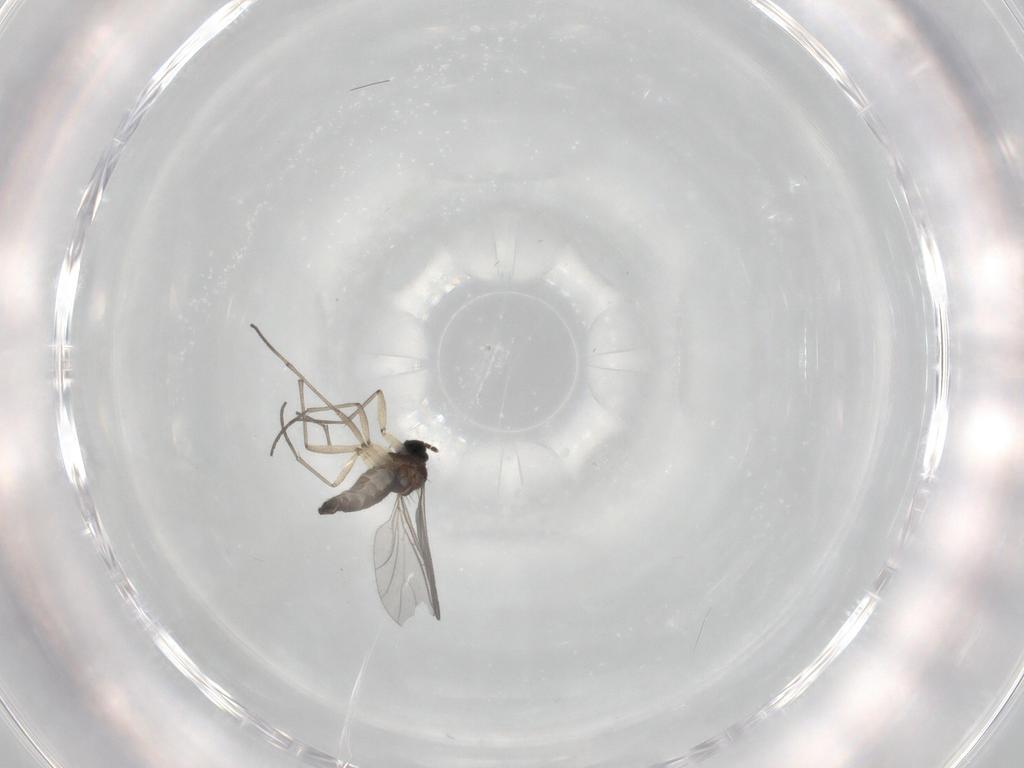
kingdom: Animalia
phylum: Arthropoda
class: Insecta
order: Diptera
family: Sciaridae
